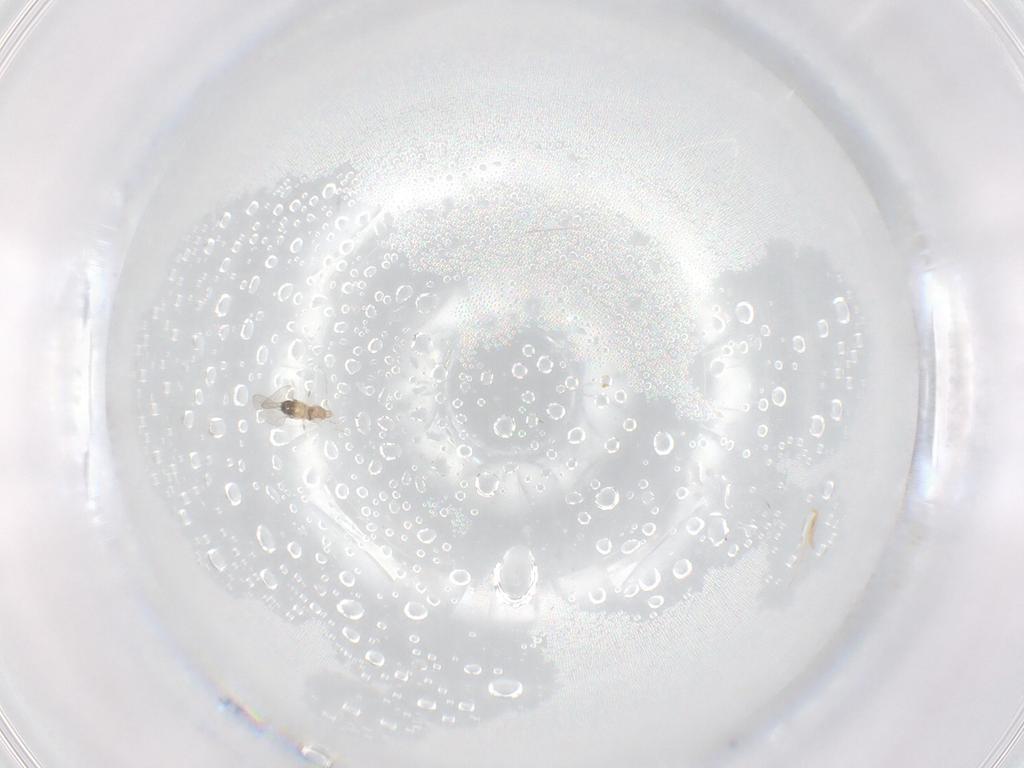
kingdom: Animalia
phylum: Arthropoda
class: Insecta
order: Diptera
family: Cecidomyiidae
